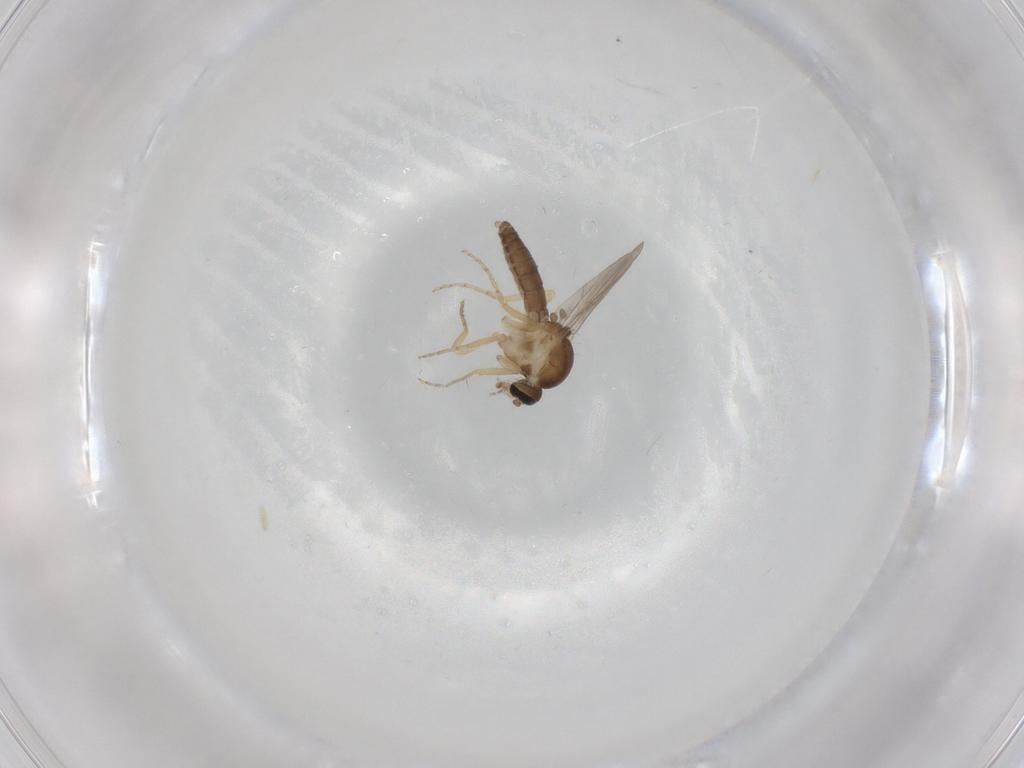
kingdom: Animalia
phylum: Arthropoda
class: Insecta
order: Diptera
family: Ceratopogonidae
